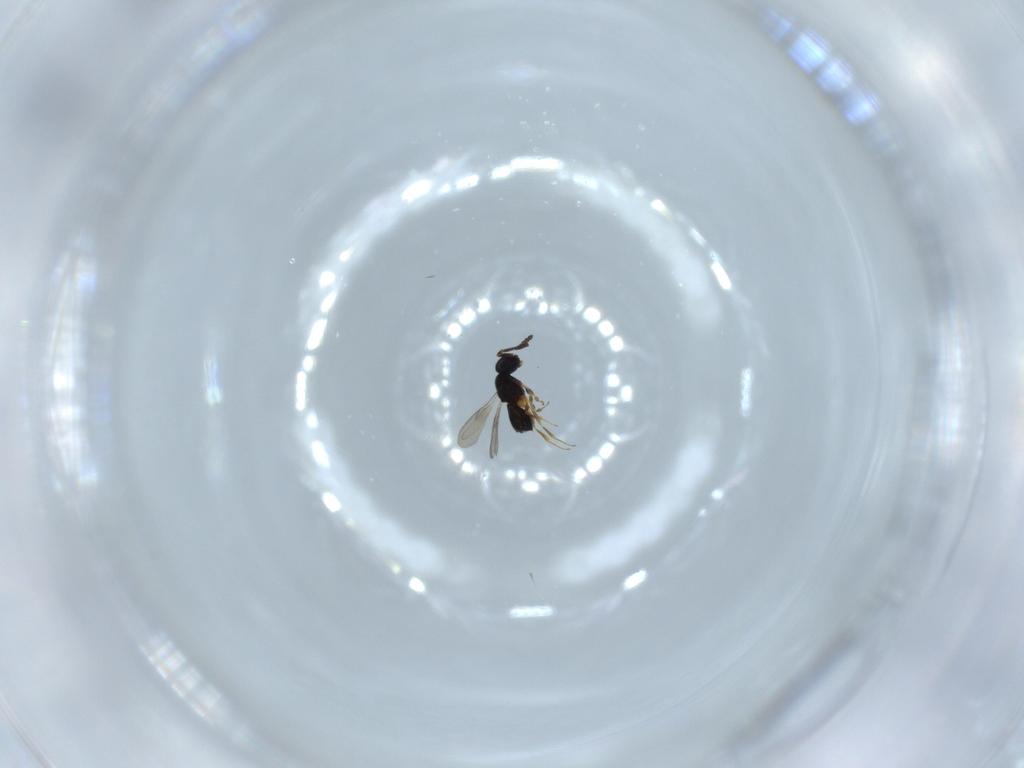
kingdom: Animalia
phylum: Arthropoda
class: Insecta
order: Hymenoptera
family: Scelionidae
